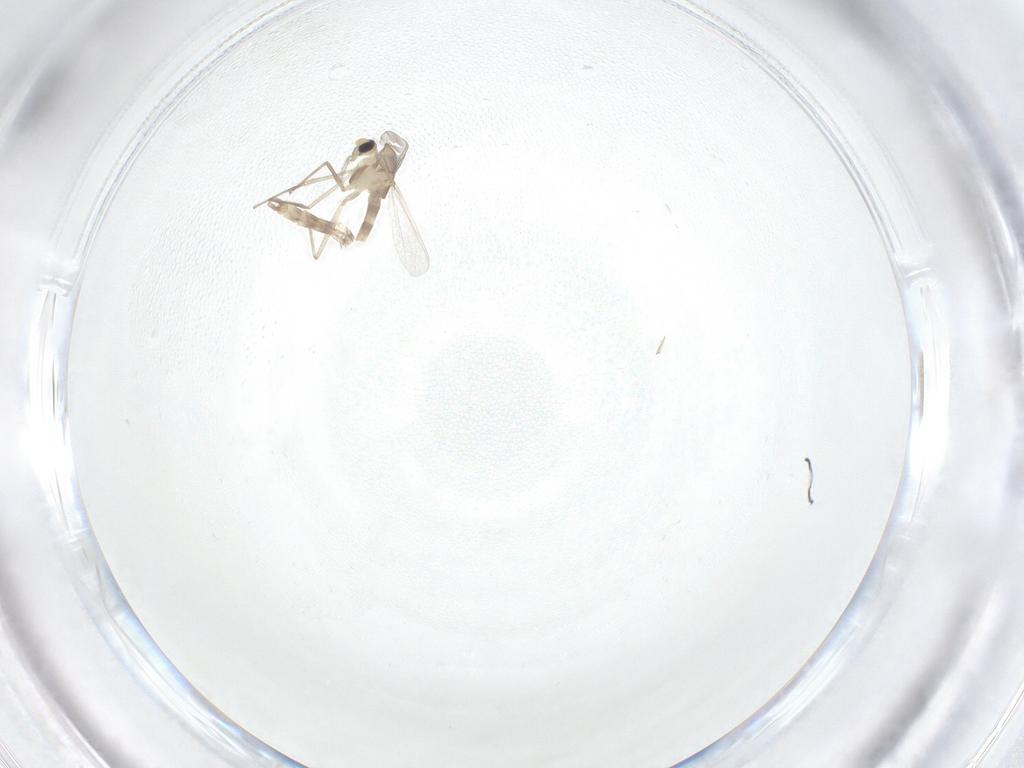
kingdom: Animalia
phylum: Arthropoda
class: Insecta
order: Diptera
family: Chironomidae
